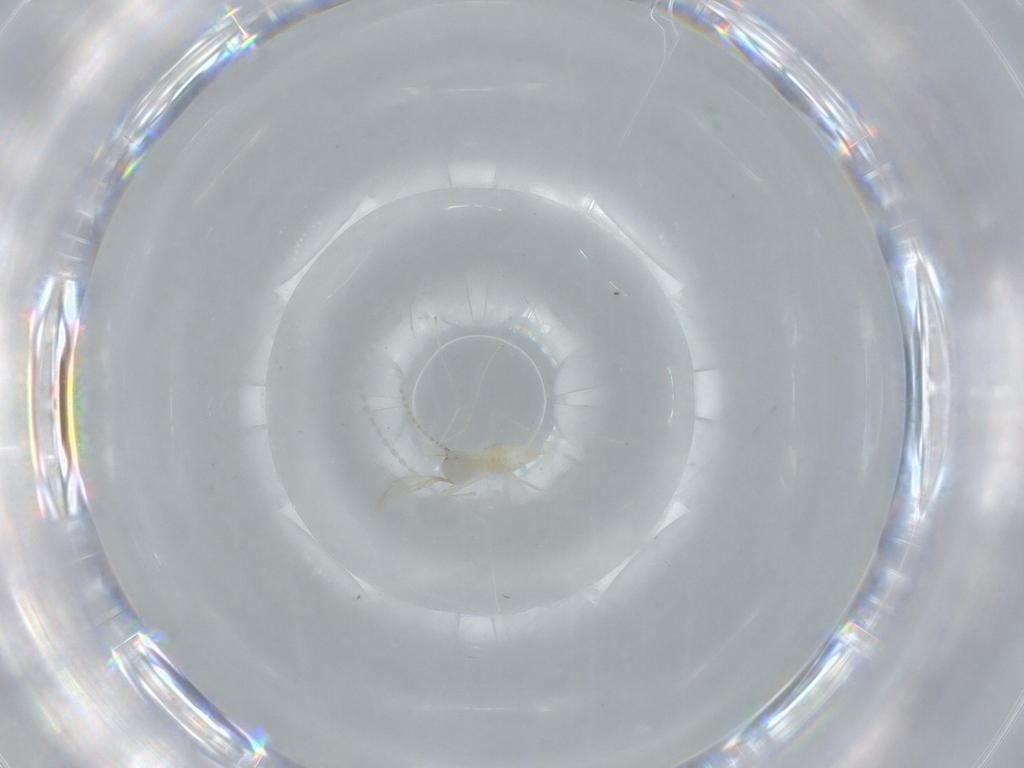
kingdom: Animalia
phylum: Arthropoda
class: Insecta
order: Diptera
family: Cecidomyiidae
